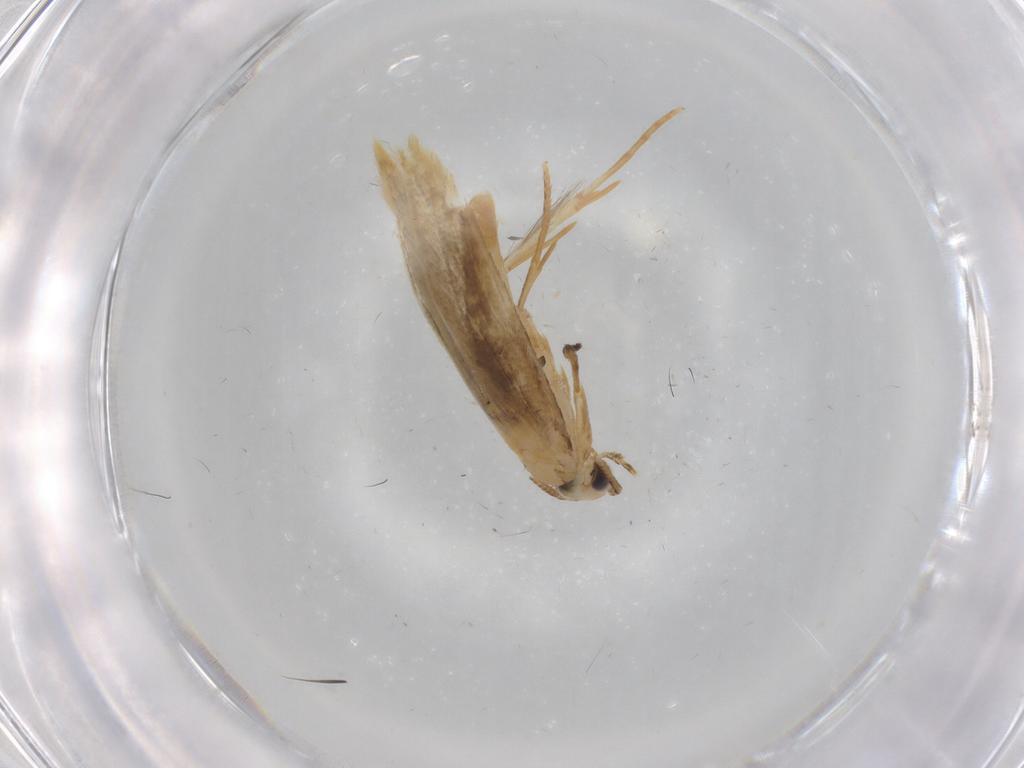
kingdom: Animalia
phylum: Arthropoda
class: Insecta
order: Lepidoptera
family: Tineidae
